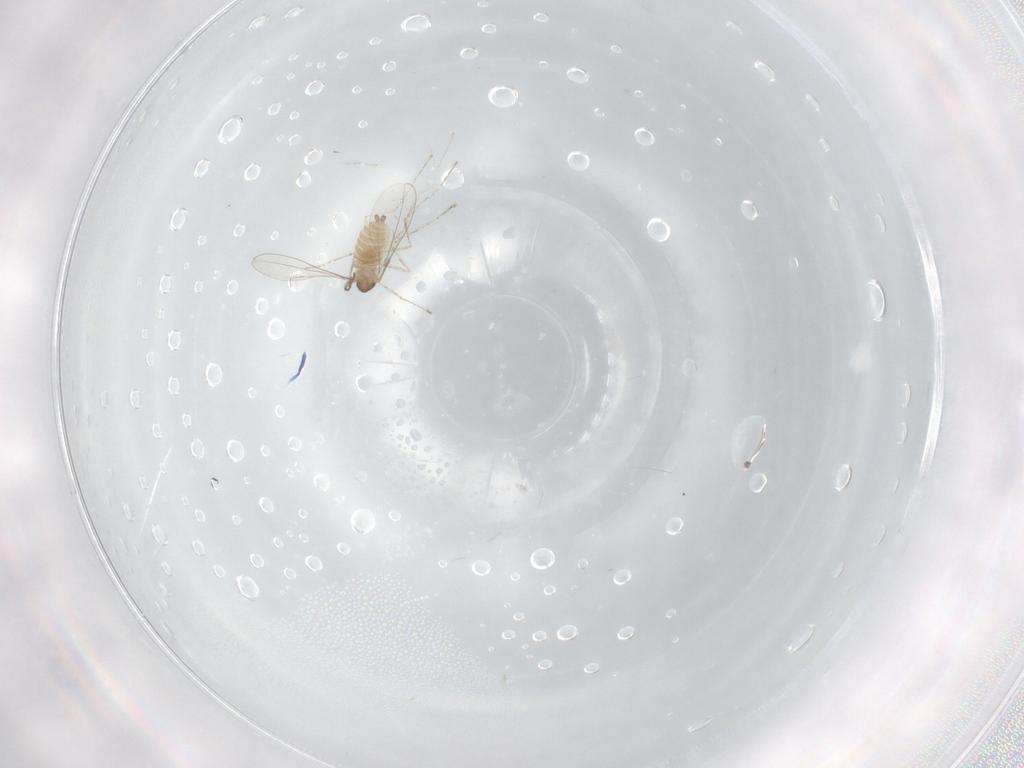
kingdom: Animalia
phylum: Arthropoda
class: Insecta
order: Diptera
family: Cecidomyiidae
